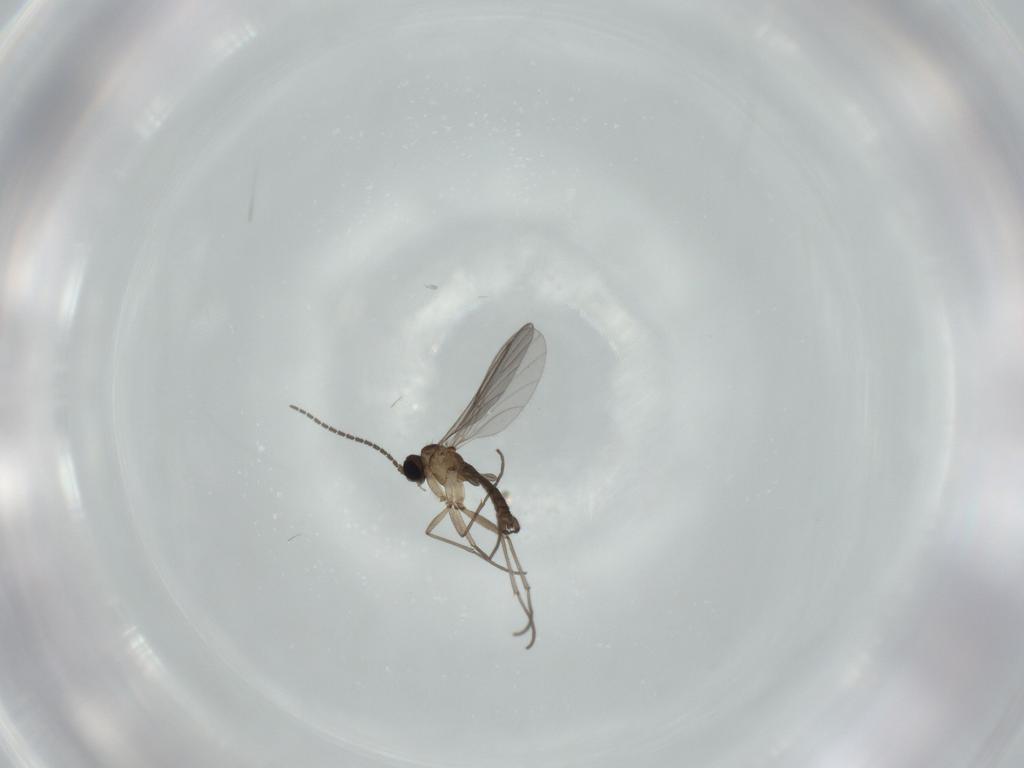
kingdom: Animalia
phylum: Arthropoda
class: Insecta
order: Diptera
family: Sciaridae
